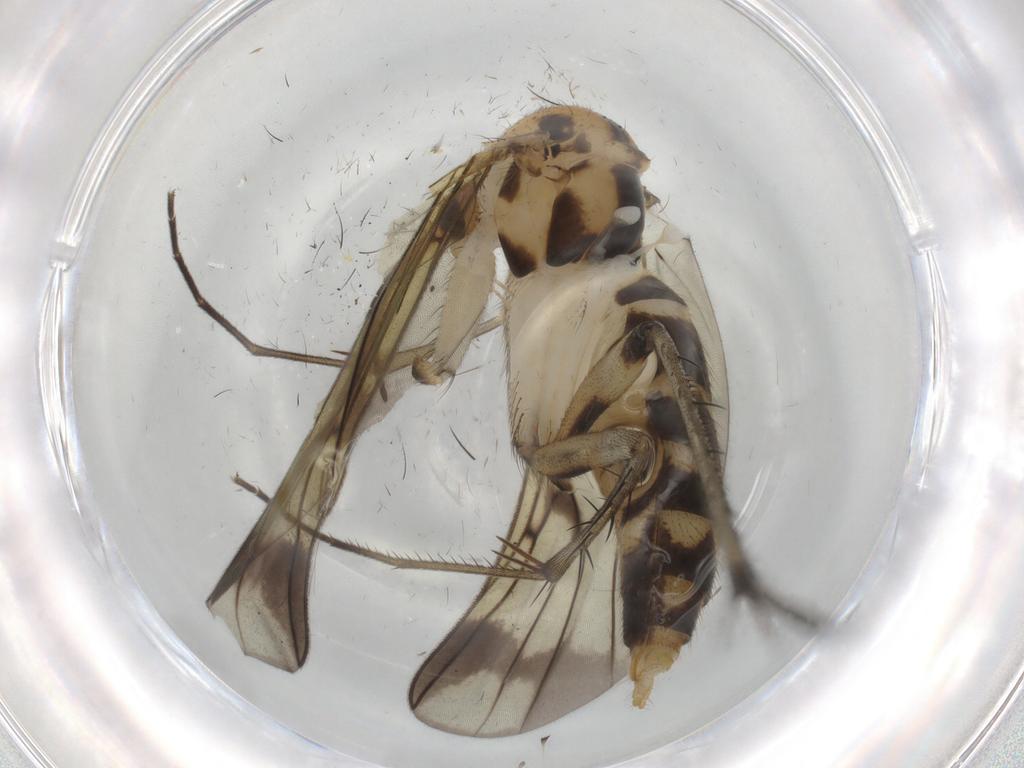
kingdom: Animalia
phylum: Arthropoda
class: Insecta
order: Diptera
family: Mycetophilidae
